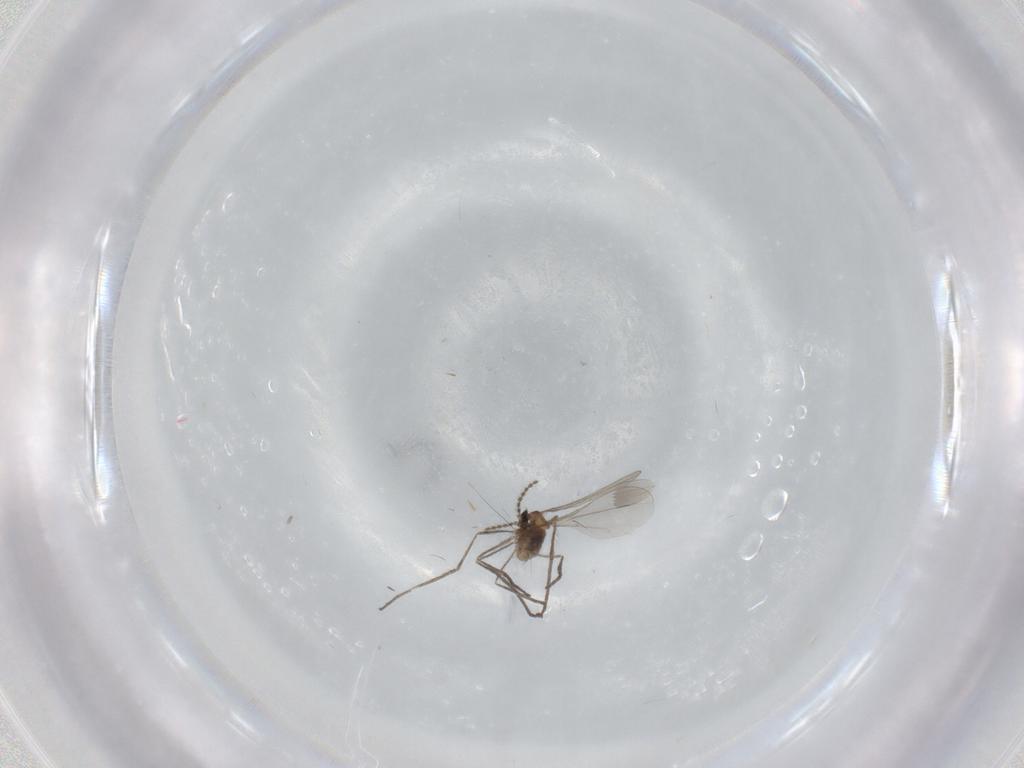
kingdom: Animalia
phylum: Arthropoda
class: Insecta
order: Diptera
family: Cecidomyiidae
